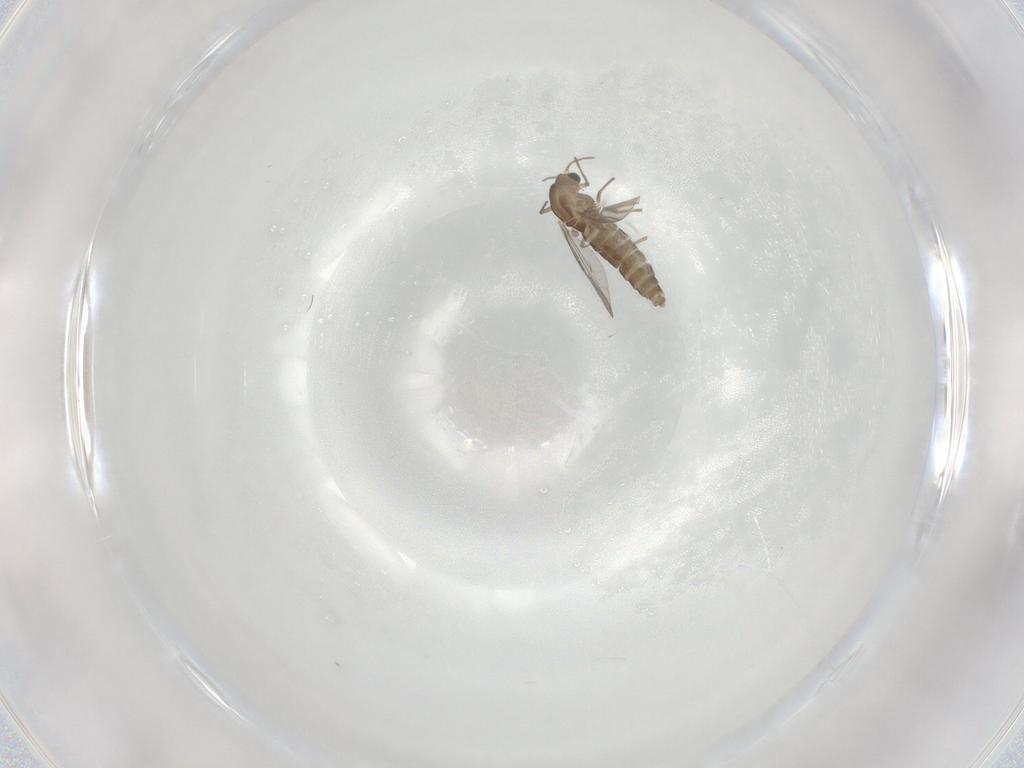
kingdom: Animalia
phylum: Arthropoda
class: Insecta
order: Diptera
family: Chironomidae
